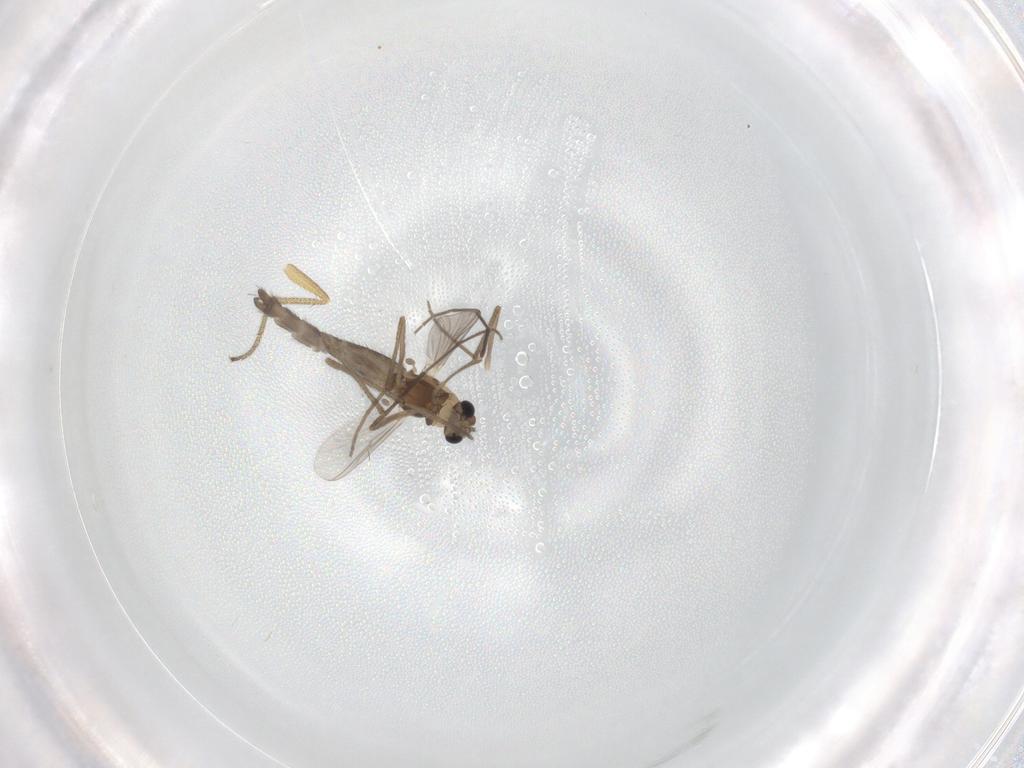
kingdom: Animalia
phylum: Arthropoda
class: Insecta
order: Diptera
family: Chironomidae
